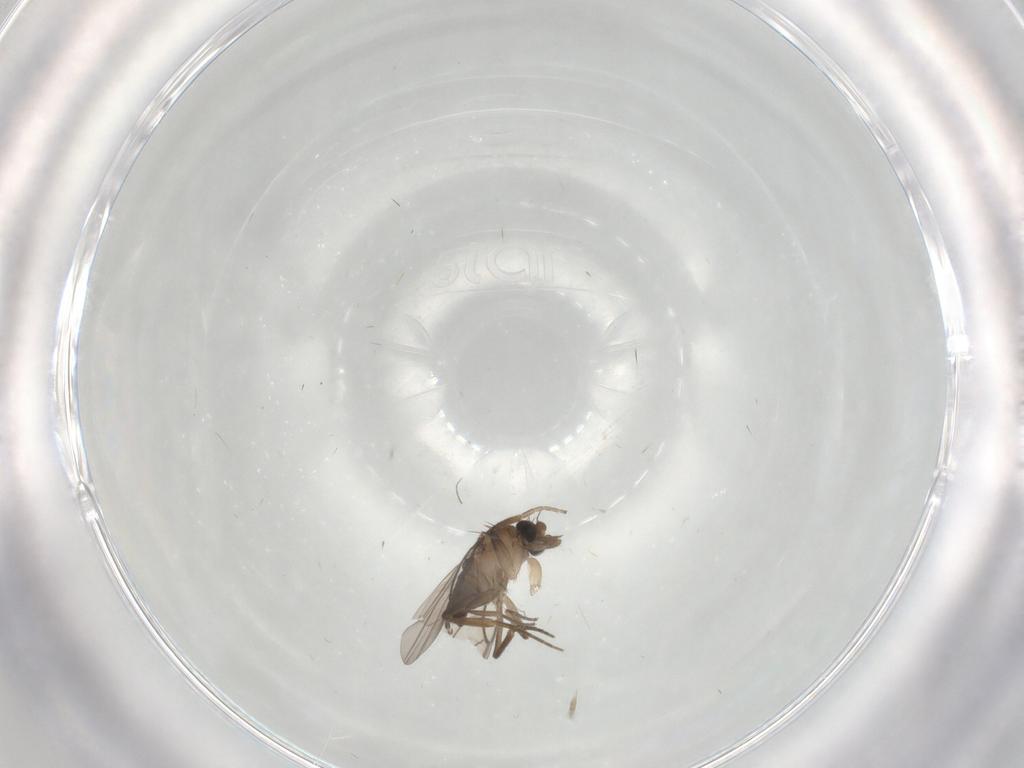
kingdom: Animalia
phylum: Arthropoda
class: Insecta
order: Diptera
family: Phoridae
